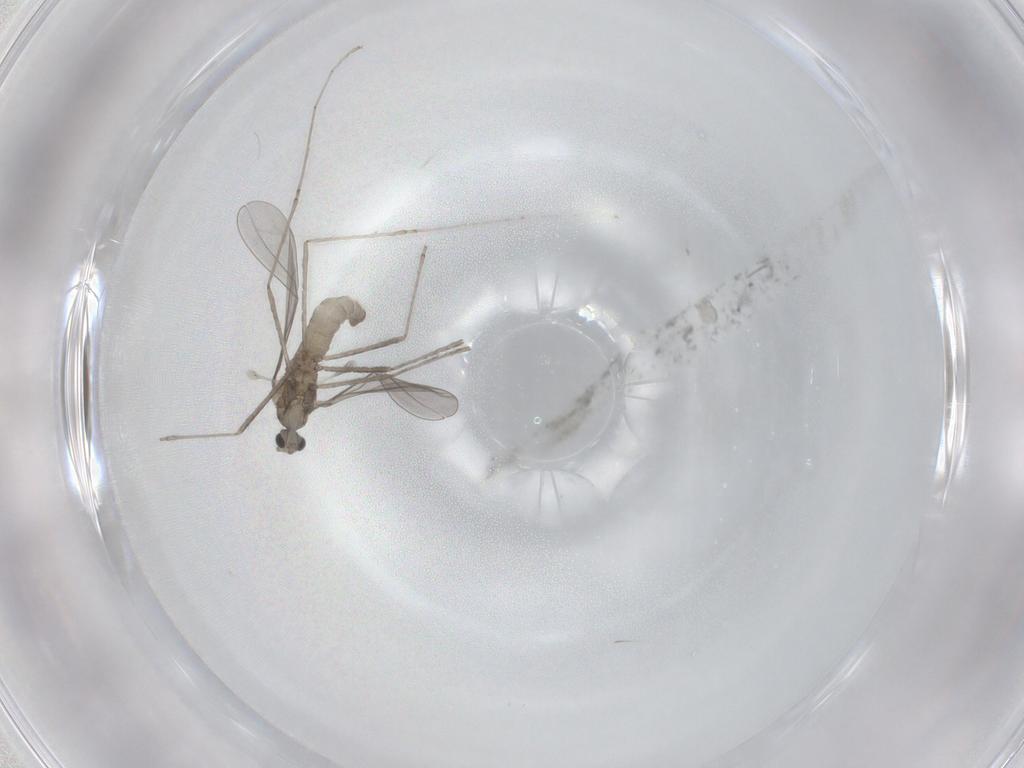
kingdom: Animalia
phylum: Arthropoda
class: Insecta
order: Diptera
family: Cecidomyiidae
